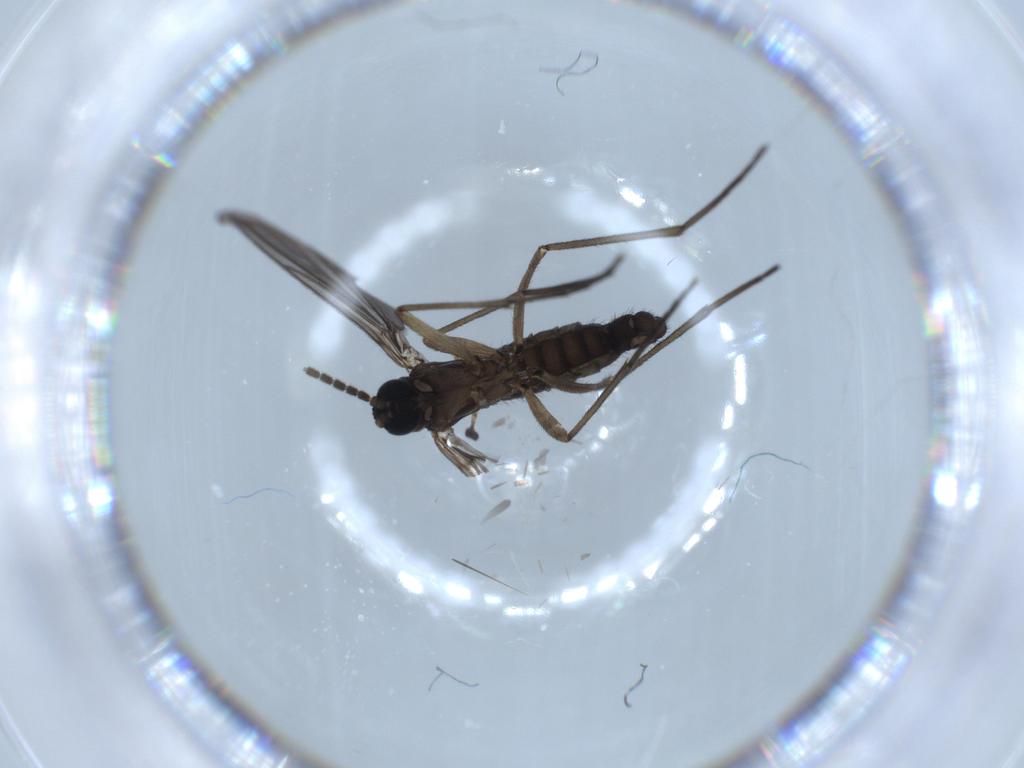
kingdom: Animalia
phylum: Arthropoda
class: Insecta
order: Diptera
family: Sciaridae
